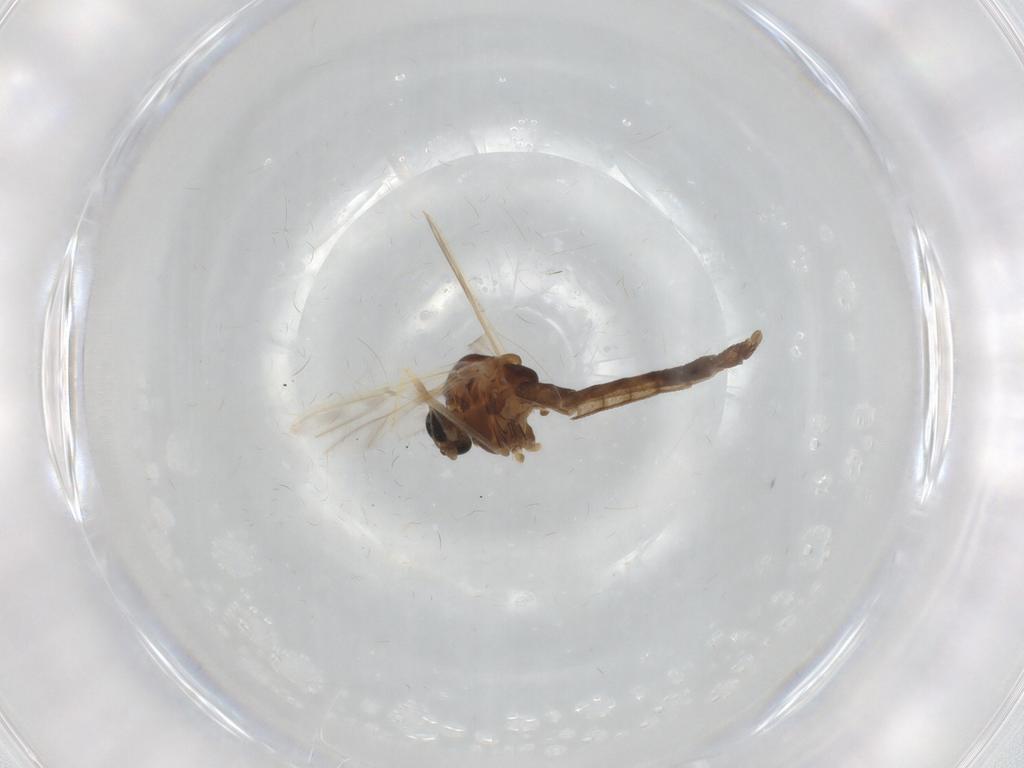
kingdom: Animalia
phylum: Arthropoda
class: Insecta
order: Diptera
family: Chironomidae
